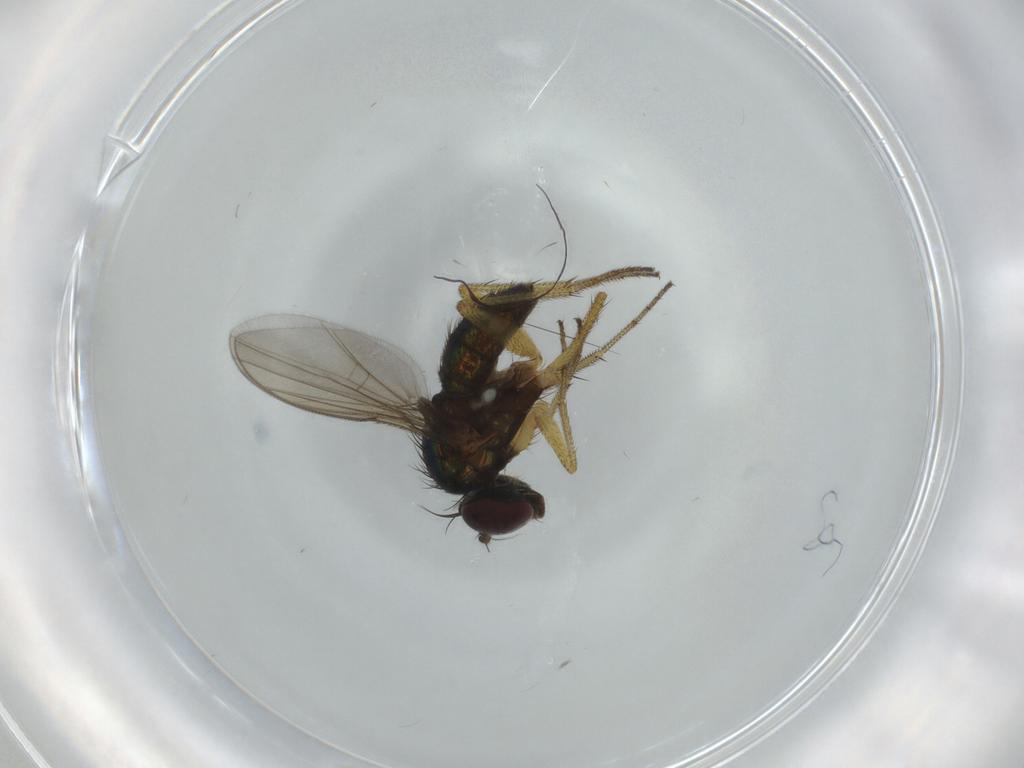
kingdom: Animalia
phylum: Arthropoda
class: Insecta
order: Diptera
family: Dolichopodidae
